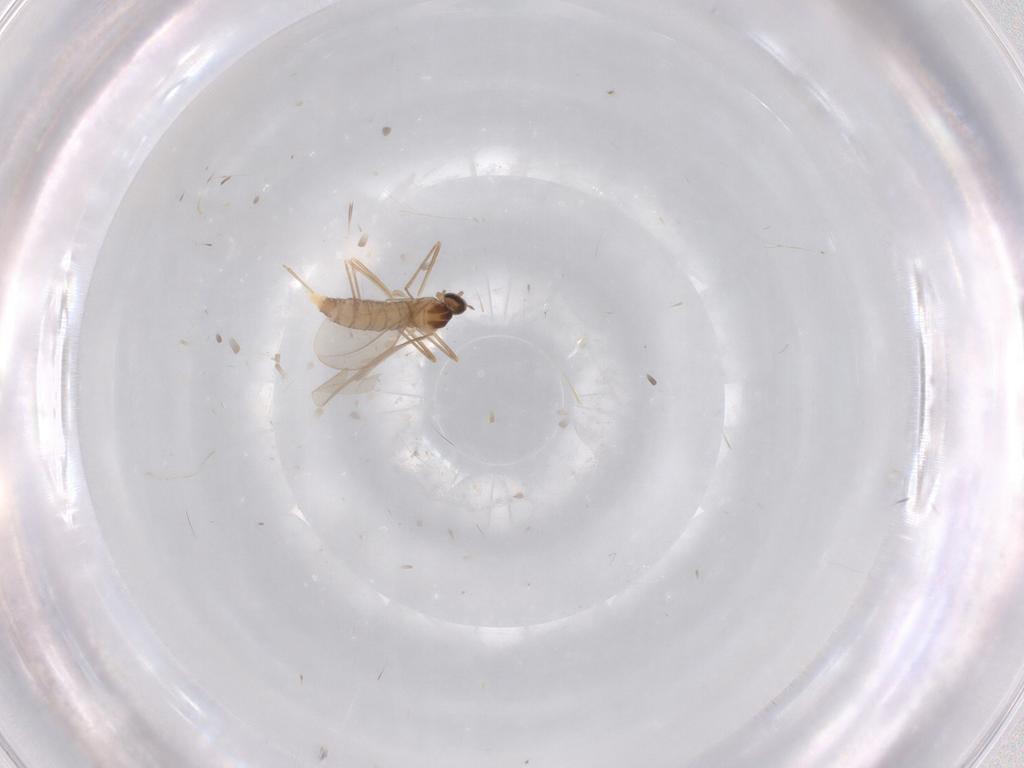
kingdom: Animalia
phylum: Arthropoda
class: Insecta
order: Diptera
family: Cecidomyiidae
